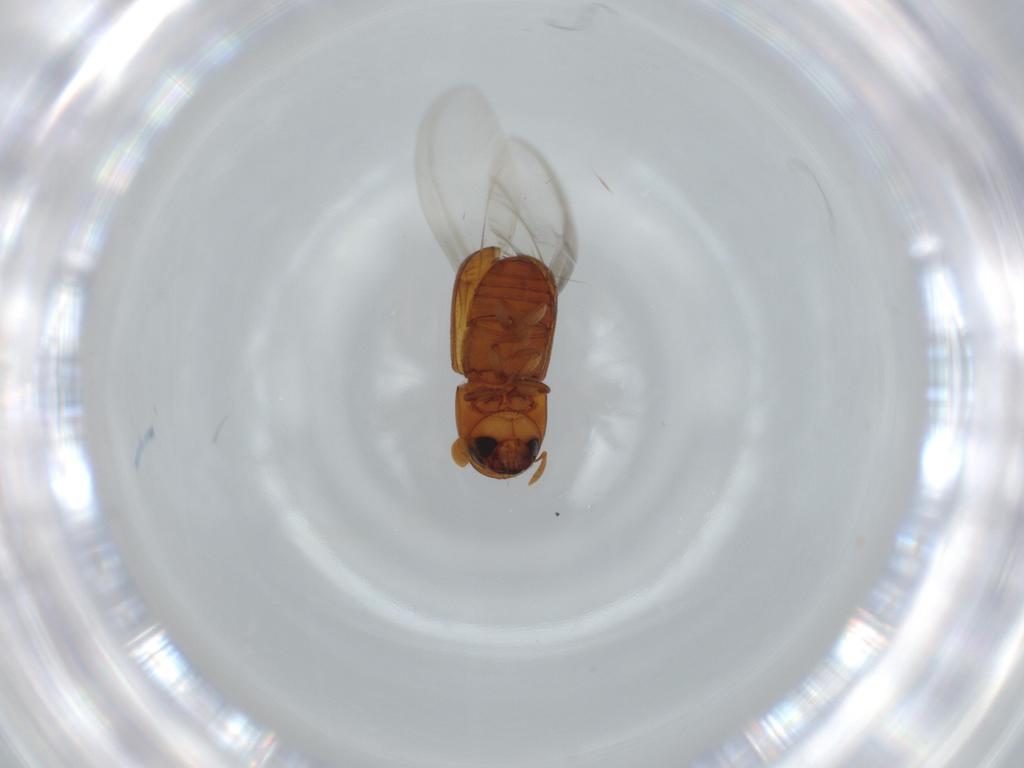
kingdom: Animalia
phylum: Arthropoda
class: Insecta
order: Coleoptera
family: Curculionidae
